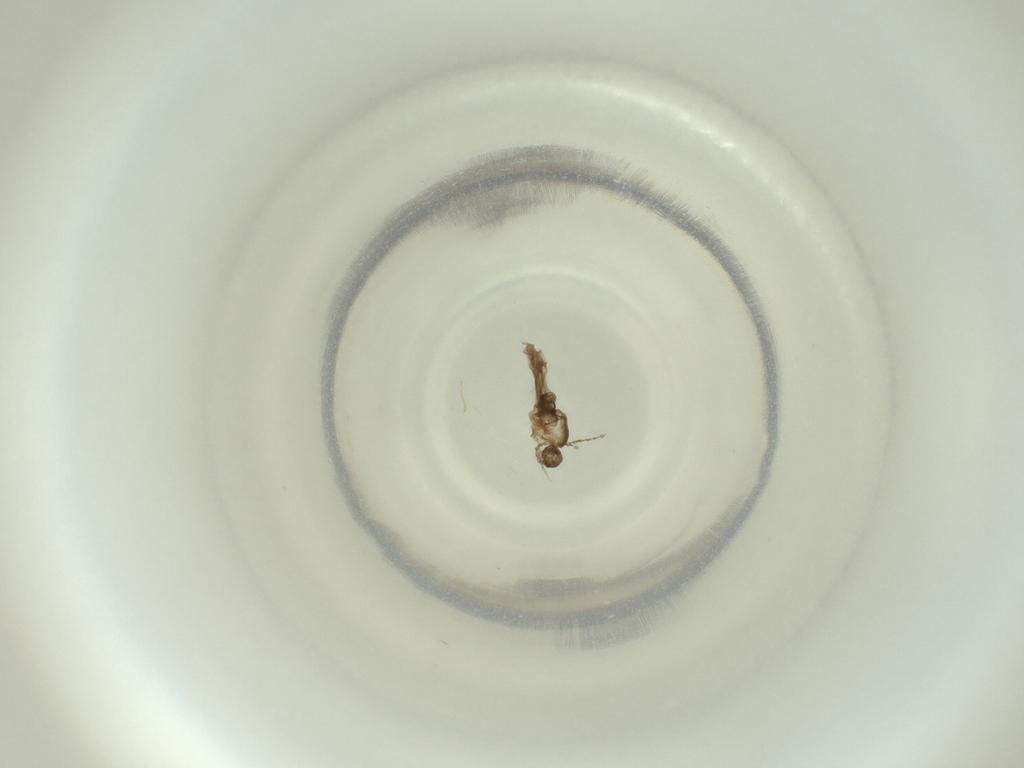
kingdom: Animalia
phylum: Arthropoda
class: Insecta
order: Diptera
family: Cecidomyiidae
